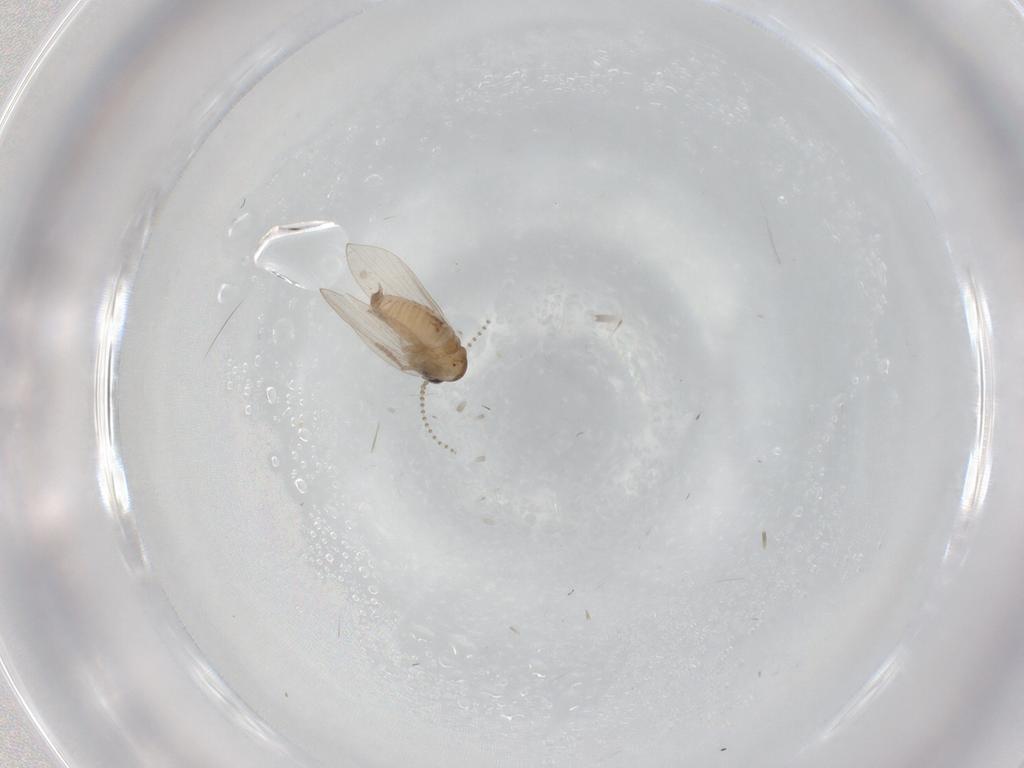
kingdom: Animalia
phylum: Arthropoda
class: Insecta
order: Diptera
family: Psychodidae
